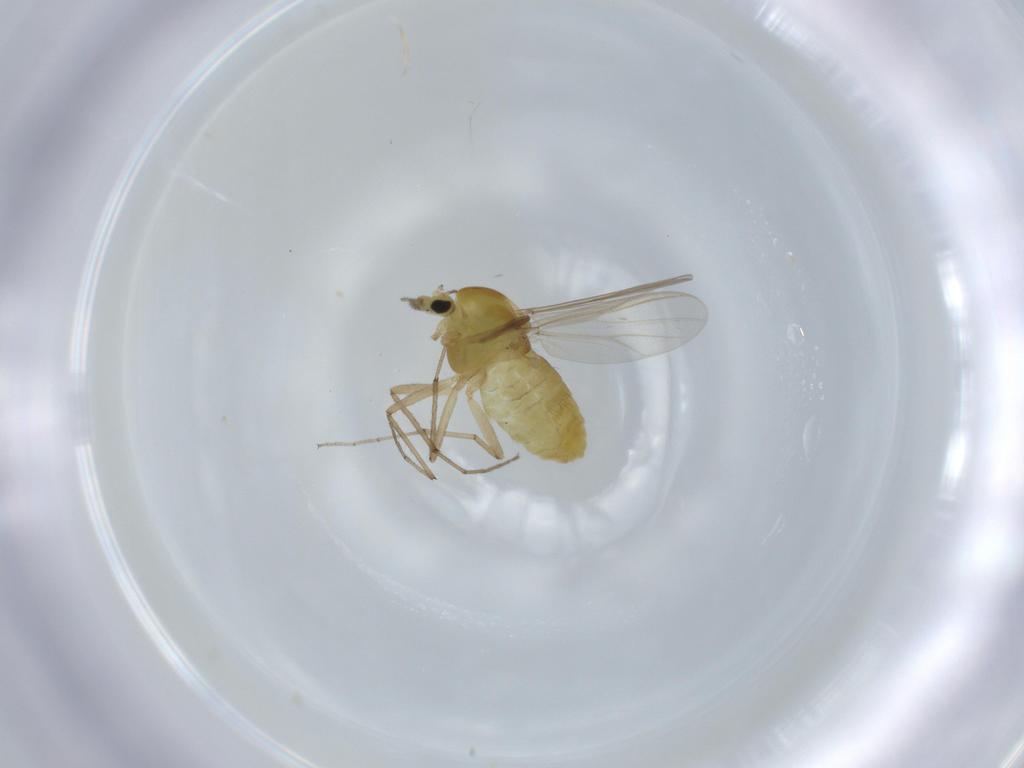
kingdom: Animalia
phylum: Arthropoda
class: Insecta
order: Diptera
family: Chironomidae
